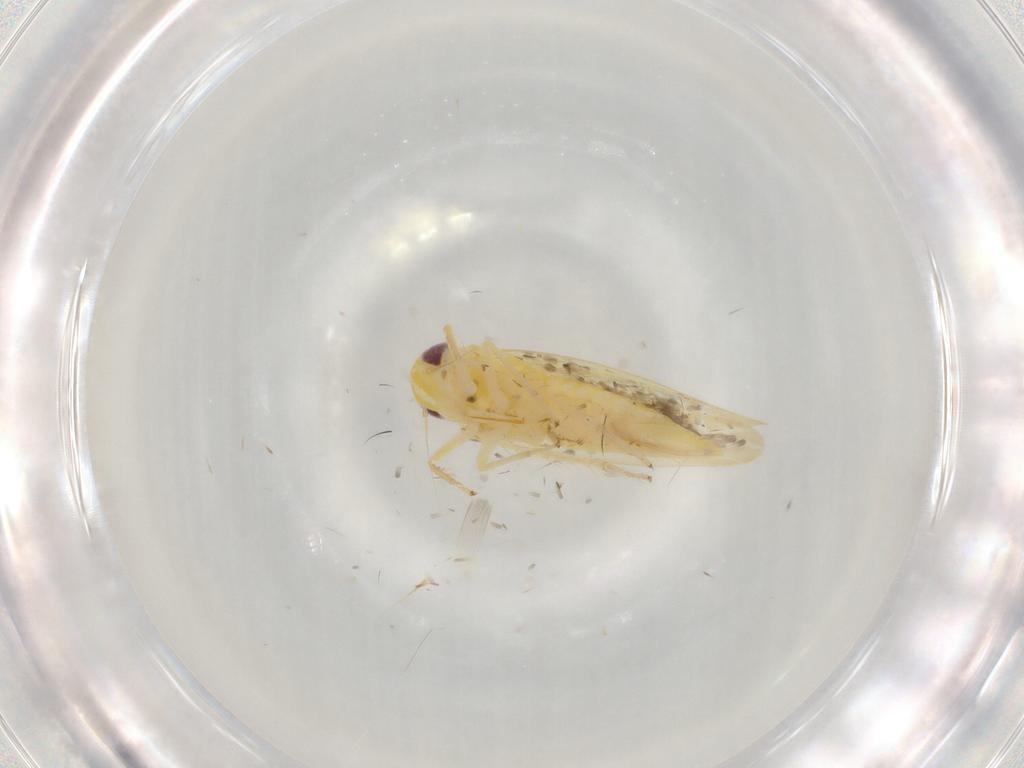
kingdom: Animalia
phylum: Arthropoda
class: Insecta
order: Hemiptera
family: Cicadellidae
